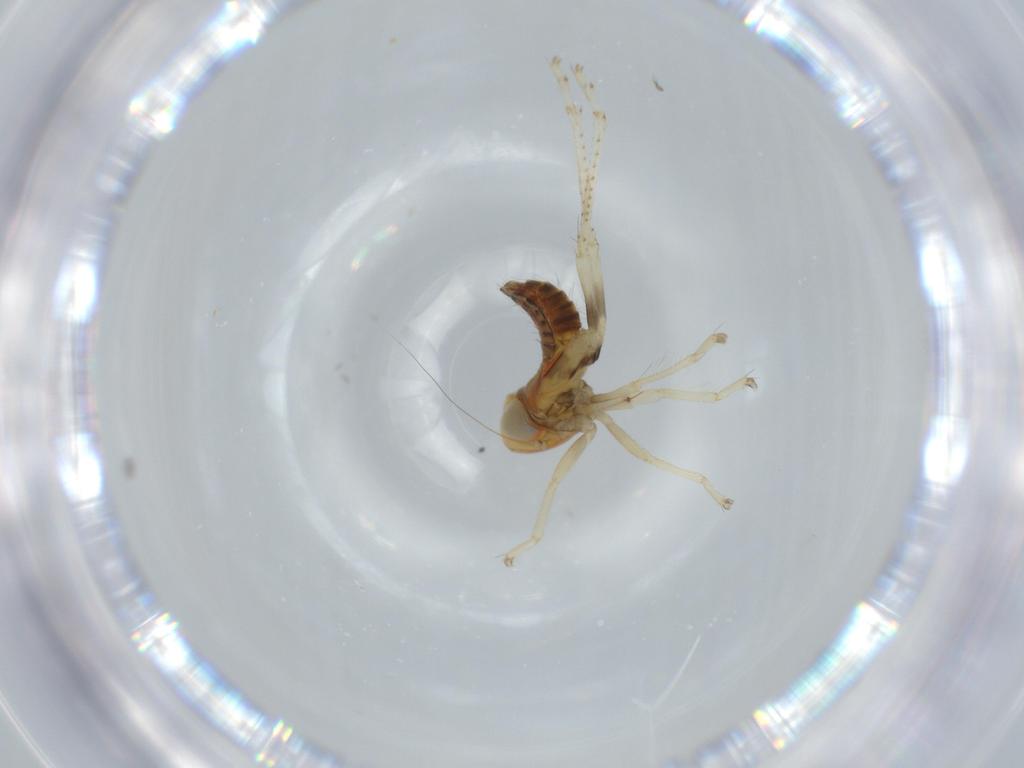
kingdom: Animalia
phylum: Arthropoda
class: Insecta
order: Hemiptera
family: Cicadellidae
